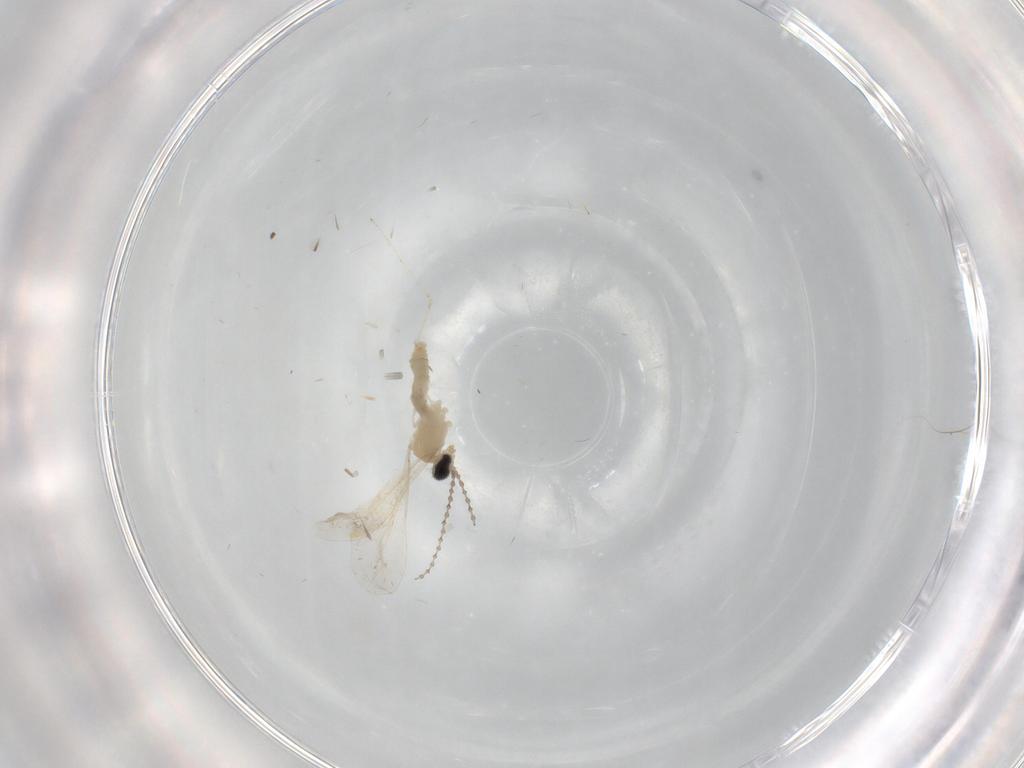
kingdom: Animalia
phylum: Arthropoda
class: Insecta
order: Diptera
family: Cecidomyiidae
